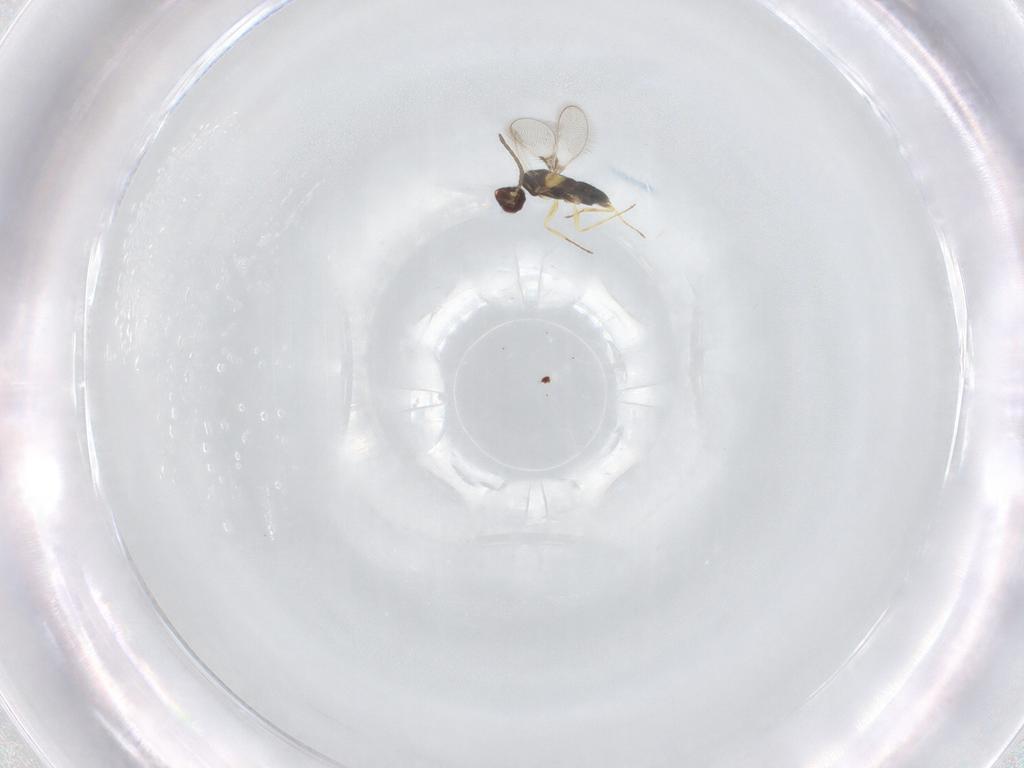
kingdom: Animalia
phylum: Arthropoda
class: Insecta
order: Hymenoptera
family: Mymaridae
